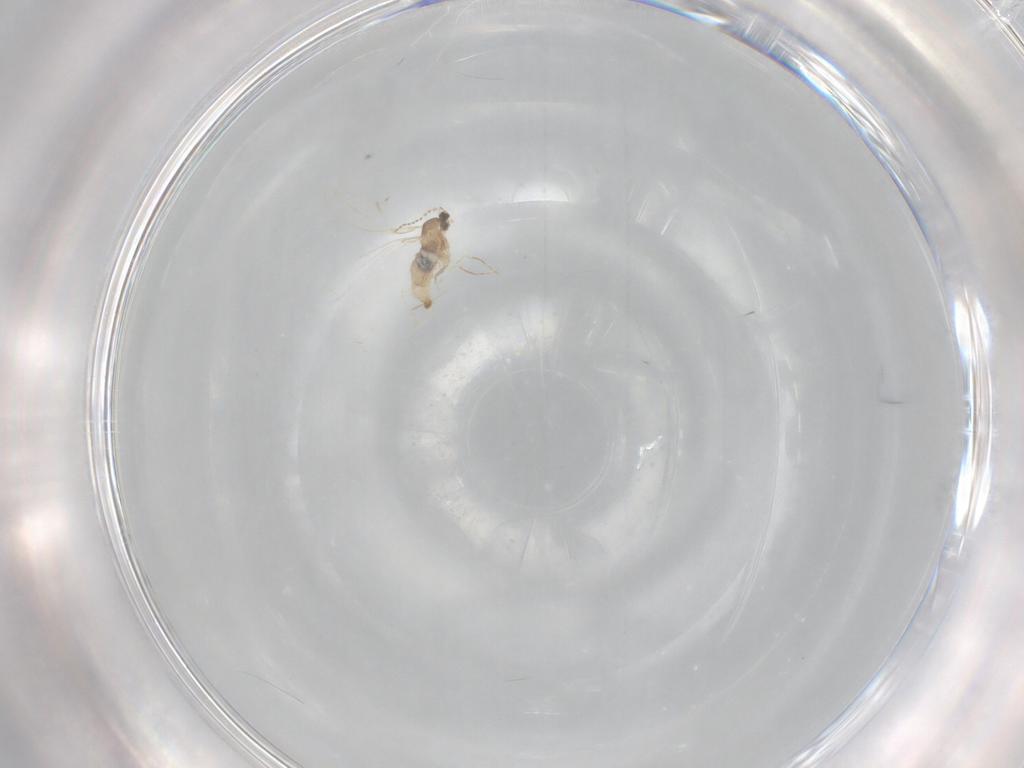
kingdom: Animalia
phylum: Arthropoda
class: Insecta
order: Diptera
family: Cecidomyiidae
